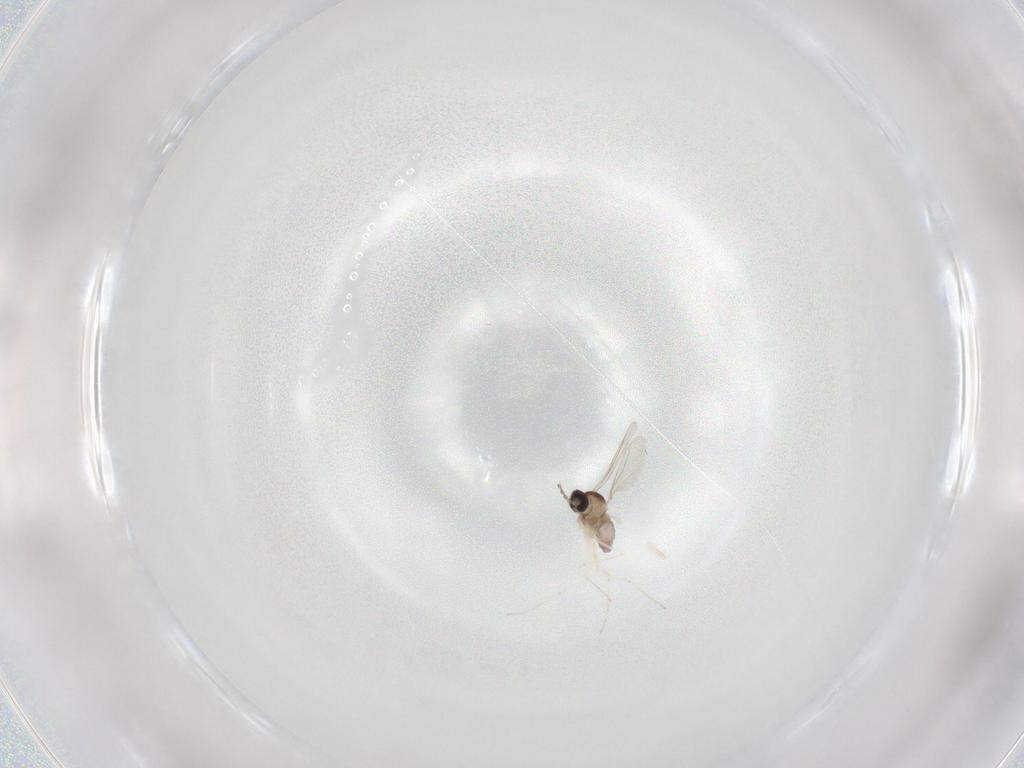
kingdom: Animalia
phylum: Arthropoda
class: Insecta
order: Diptera
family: Cecidomyiidae
